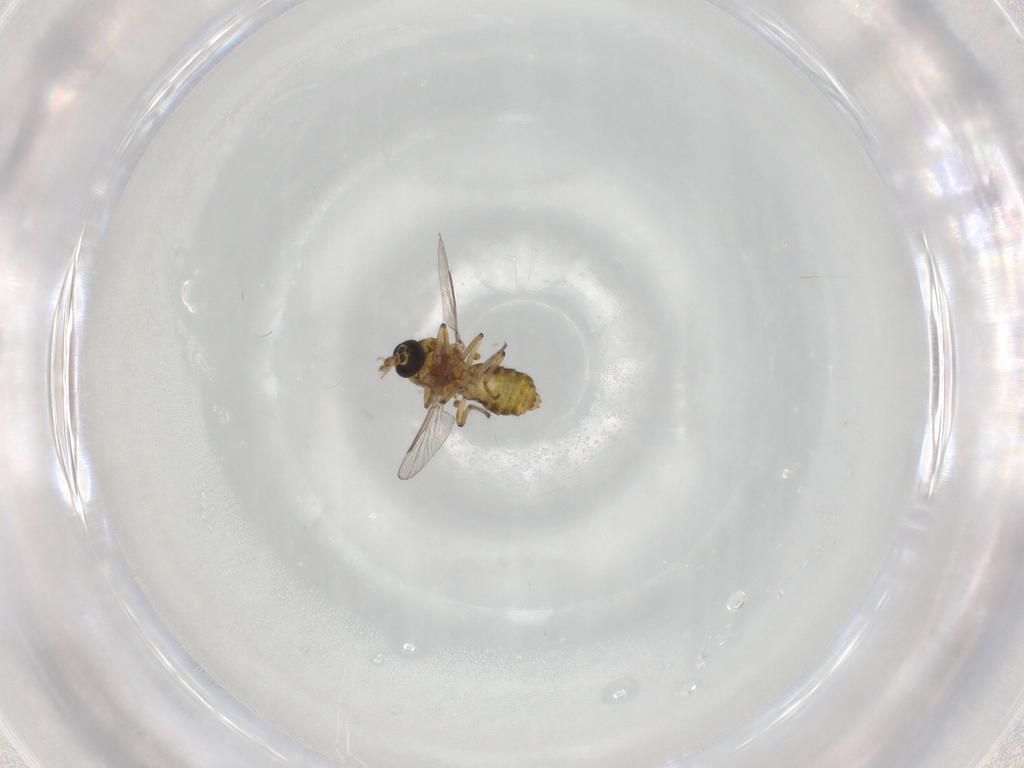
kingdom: Animalia
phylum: Arthropoda
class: Insecta
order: Diptera
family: Ceratopogonidae
